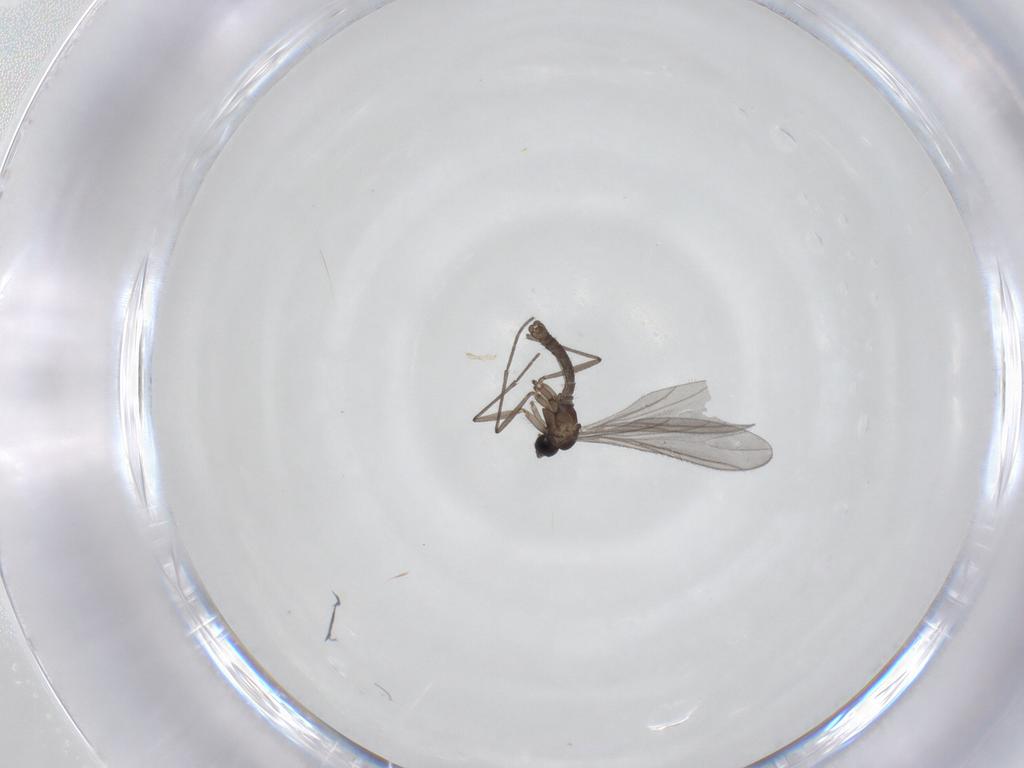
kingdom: Animalia
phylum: Arthropoda
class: Insecta
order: Diptera
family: Sciaridae
